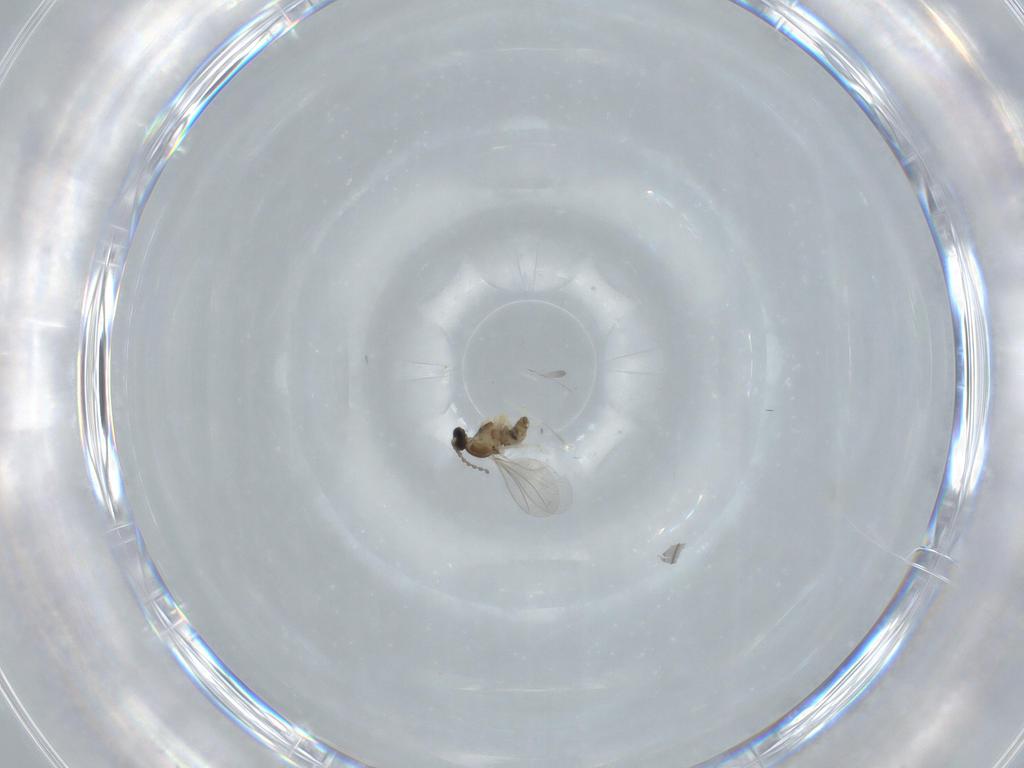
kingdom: Animalia
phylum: Arthropoda
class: Insecta
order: Diptera
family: Cecidomyiidae
